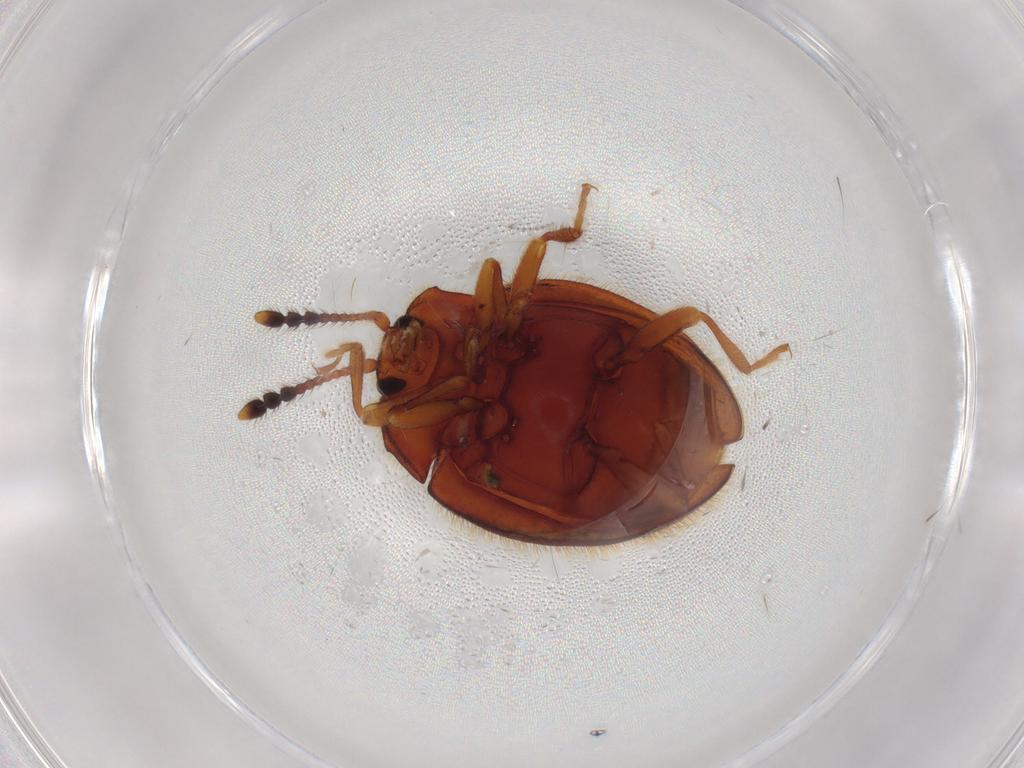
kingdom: Animalia
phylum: Arthropoda
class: Insecta
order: Coleoptera
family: Endomychidae
